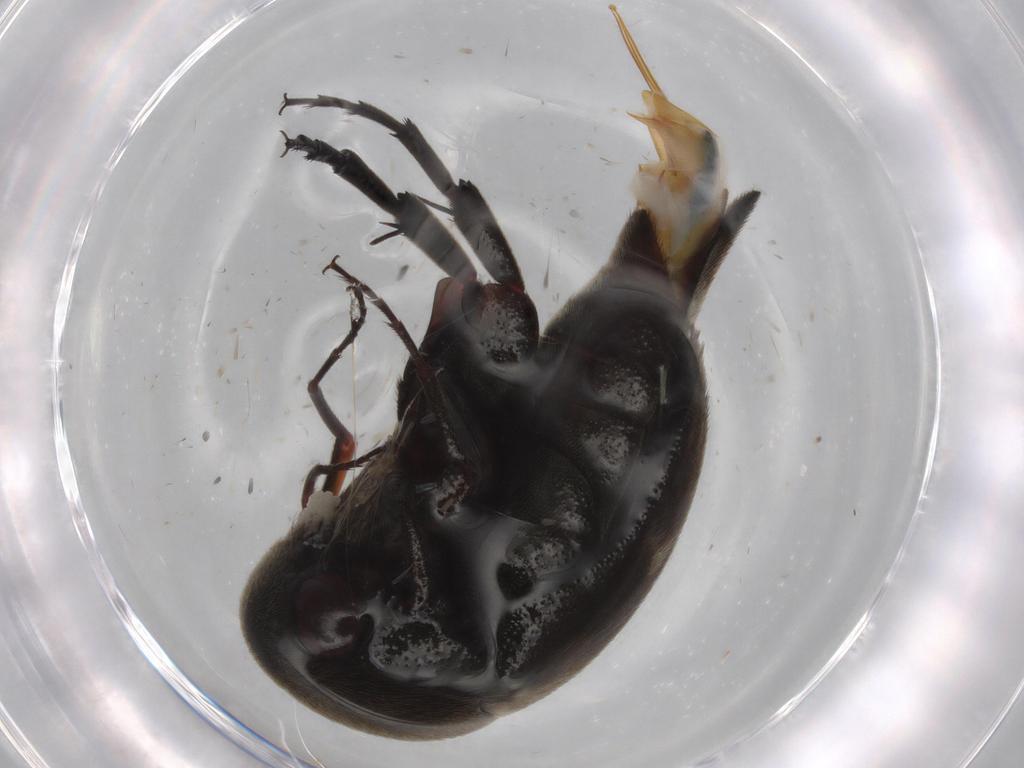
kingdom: Animalia
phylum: Arthropoda
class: Insecta
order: Coleoptera
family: Mordellidae
